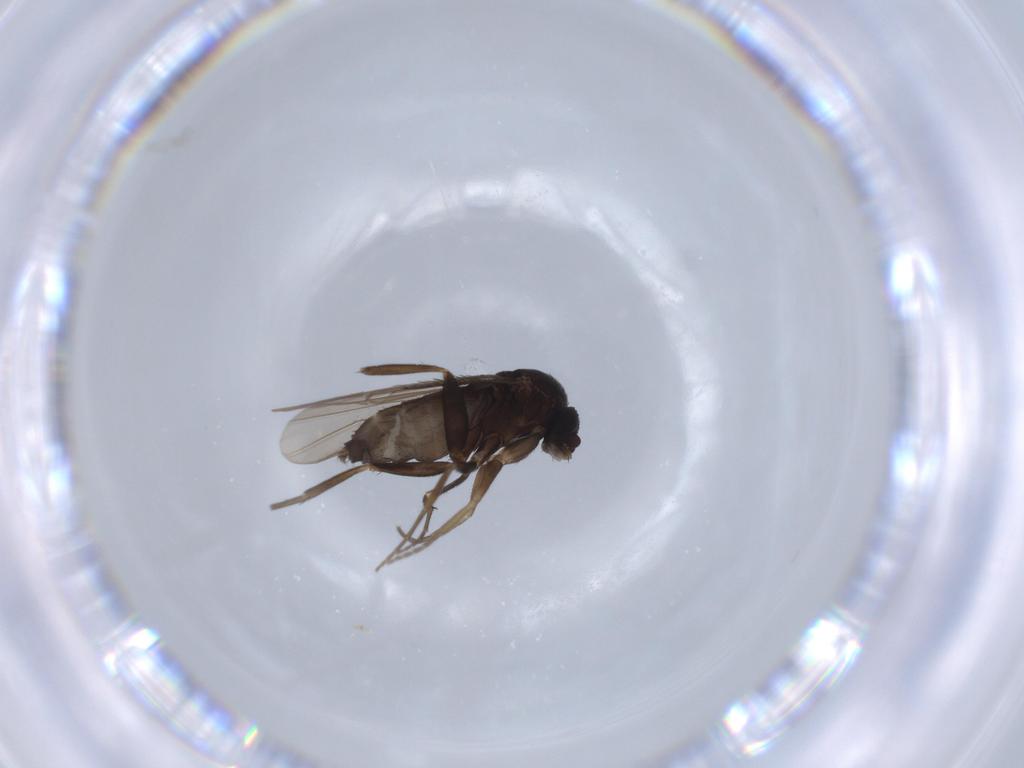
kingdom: Animalia
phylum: Arthropoda
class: Insecta
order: Diptera
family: Phoridae
